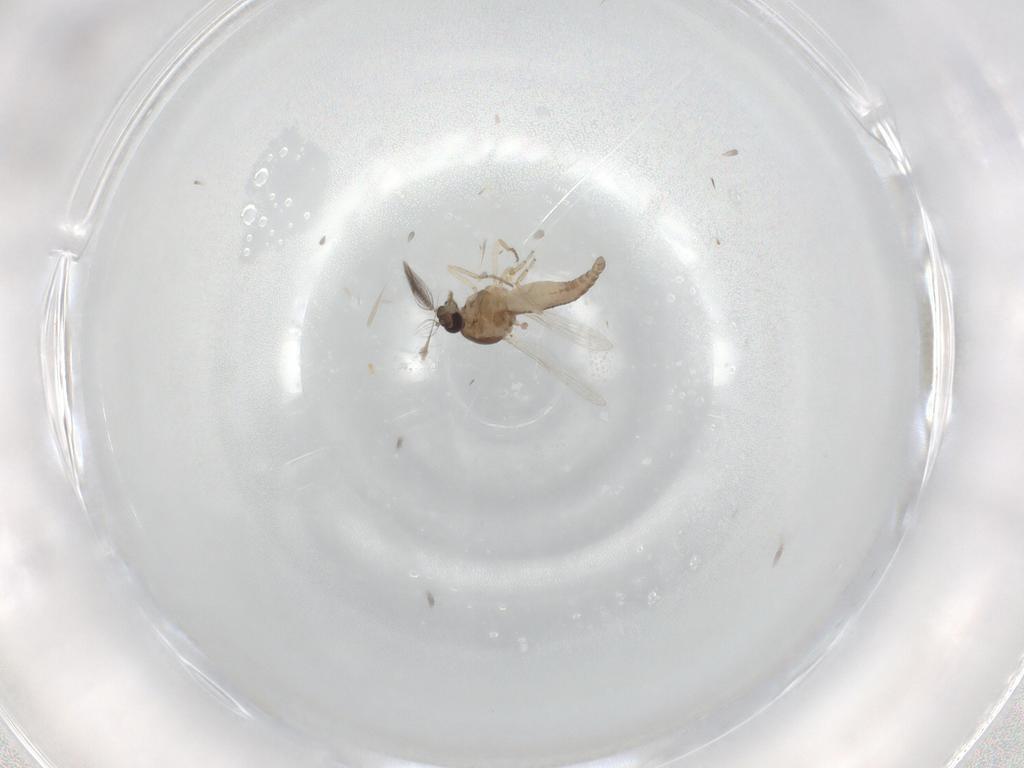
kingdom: Animalia
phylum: Arthropoda
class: Insecta
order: Diptera
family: Cecidomyiidae
